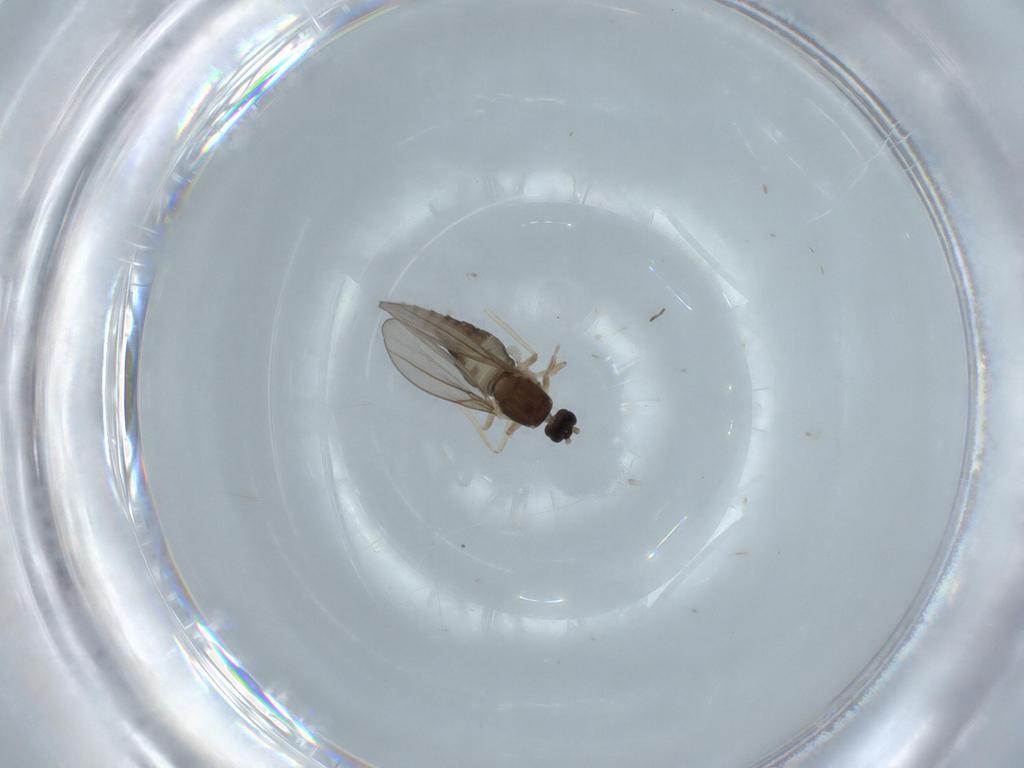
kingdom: Animalia
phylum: Arthropoda
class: Insecta
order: Diptera
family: Cecidomyiidae
